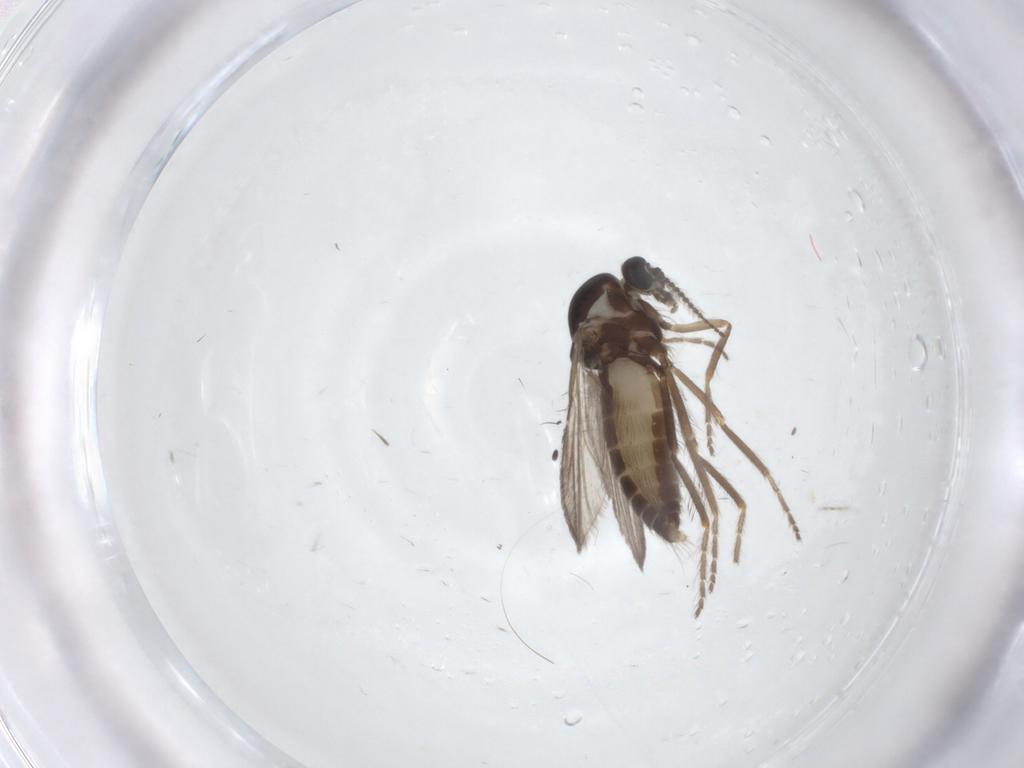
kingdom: Animalia
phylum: Arthropoda
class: Insecta
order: Diptera
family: Ceratopogonidae
